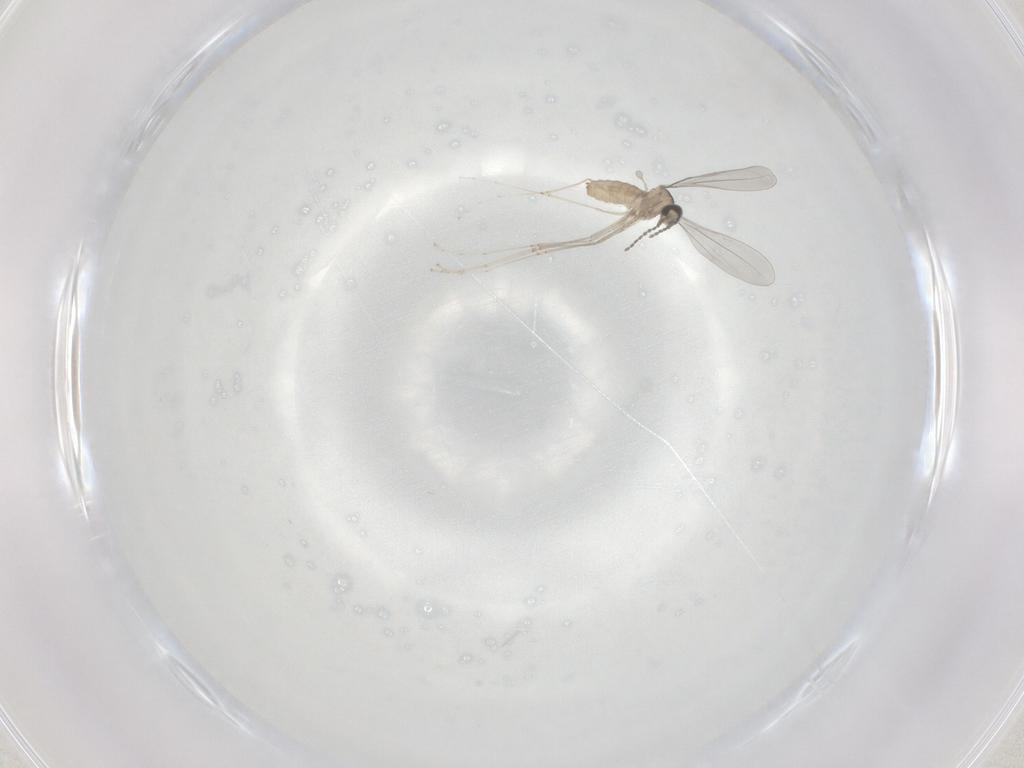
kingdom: Animalia
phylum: Arthropoda
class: Insecta
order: Diptera
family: Cecidomyiidae
